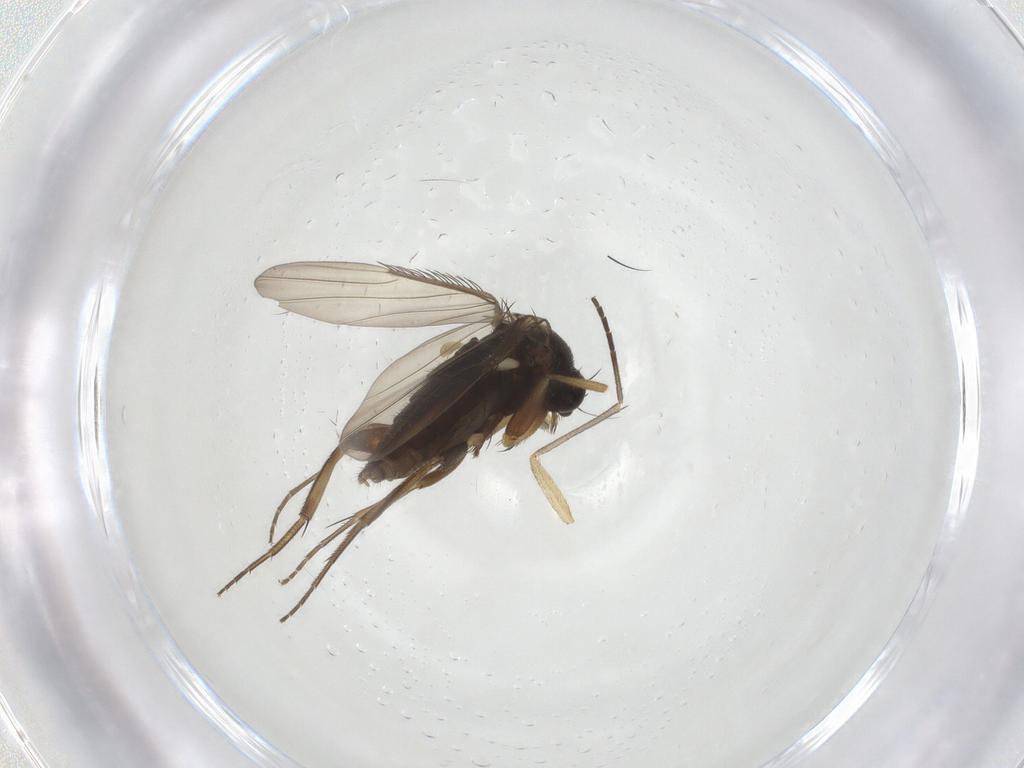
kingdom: Animalia
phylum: Arthropoda
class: Insecta
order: Diptera
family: Phoridae
